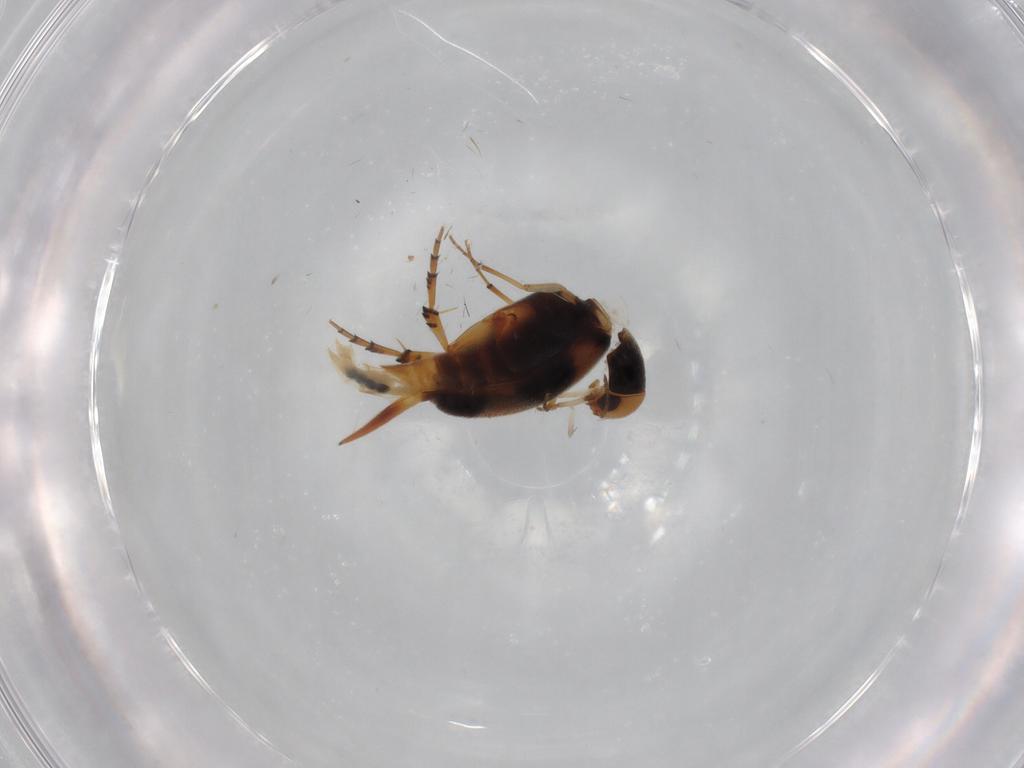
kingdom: Animalia
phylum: Arthropoda
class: Insecta
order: Coleoptera
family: Mordellidae
